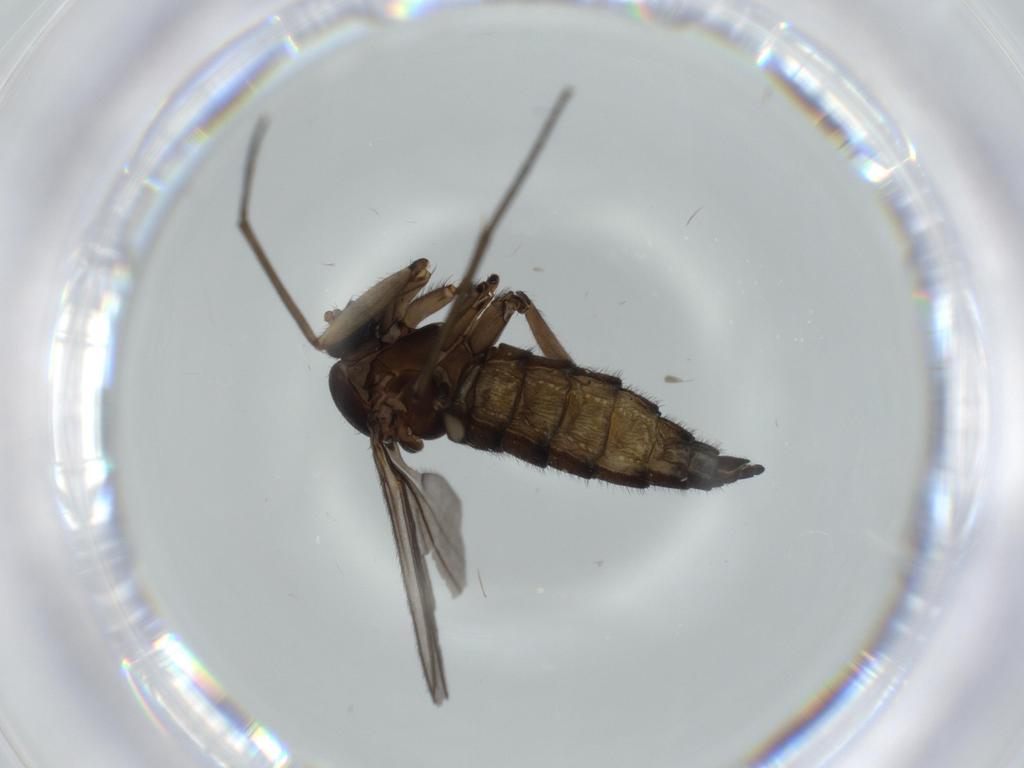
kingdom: Animalia
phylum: Arthropoda
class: Insecta
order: Diptera
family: Sciaridae
